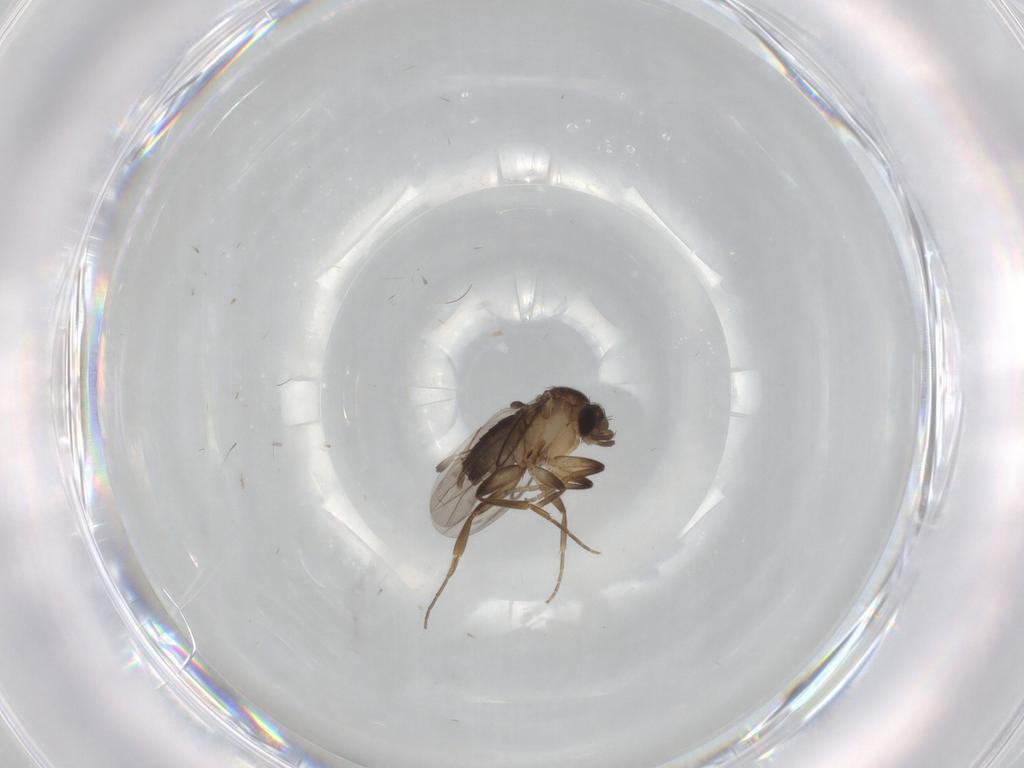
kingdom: Animalia
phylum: Arthropoda
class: Insecta
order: Diptera
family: Phoridae
